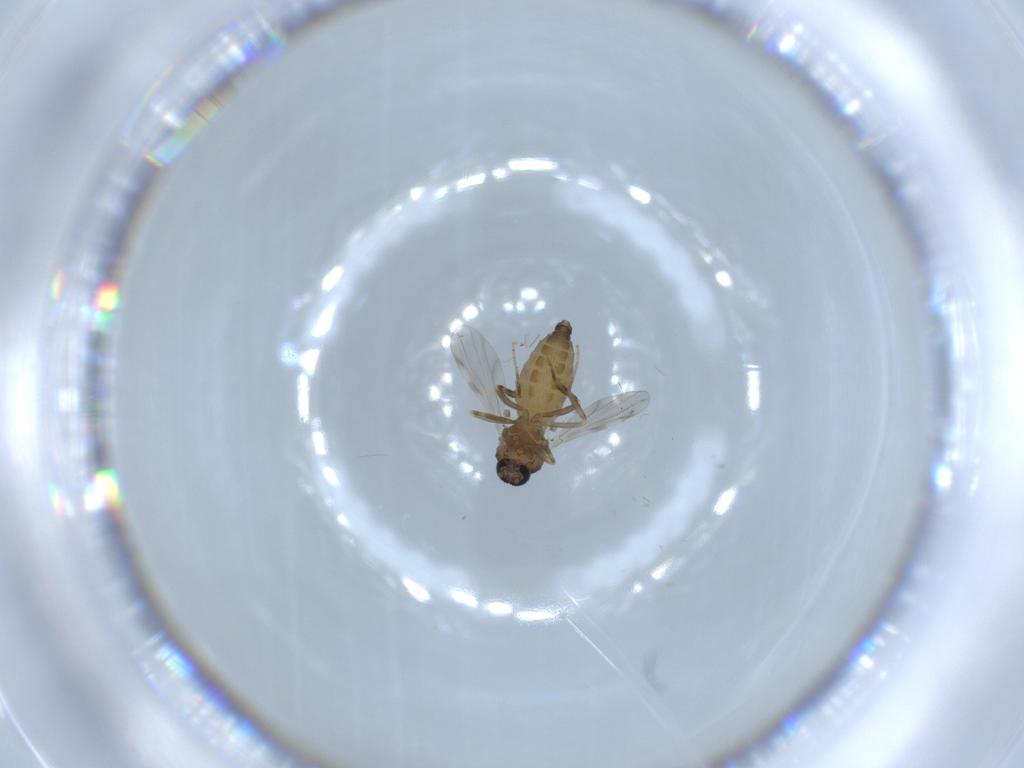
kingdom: Animalia
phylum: Arthropoda
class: Insecta
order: Diptera
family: Ceratopogonidae
